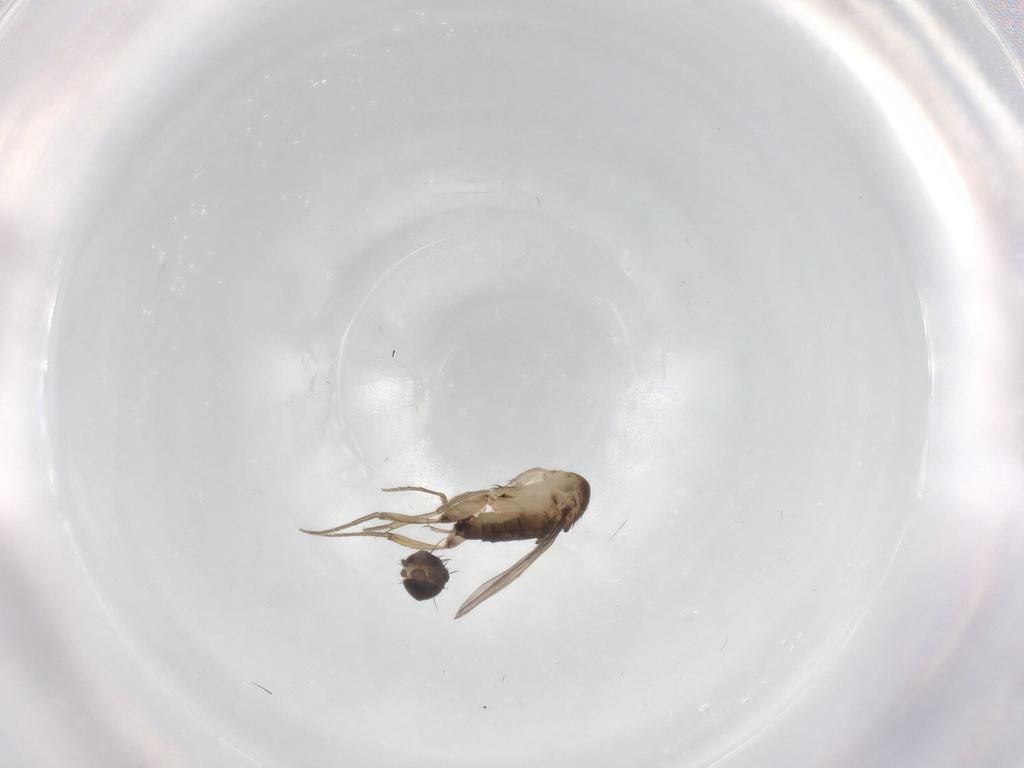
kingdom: Animalia
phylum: Arthropoda
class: Insecta
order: Diptera
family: Phoridae
